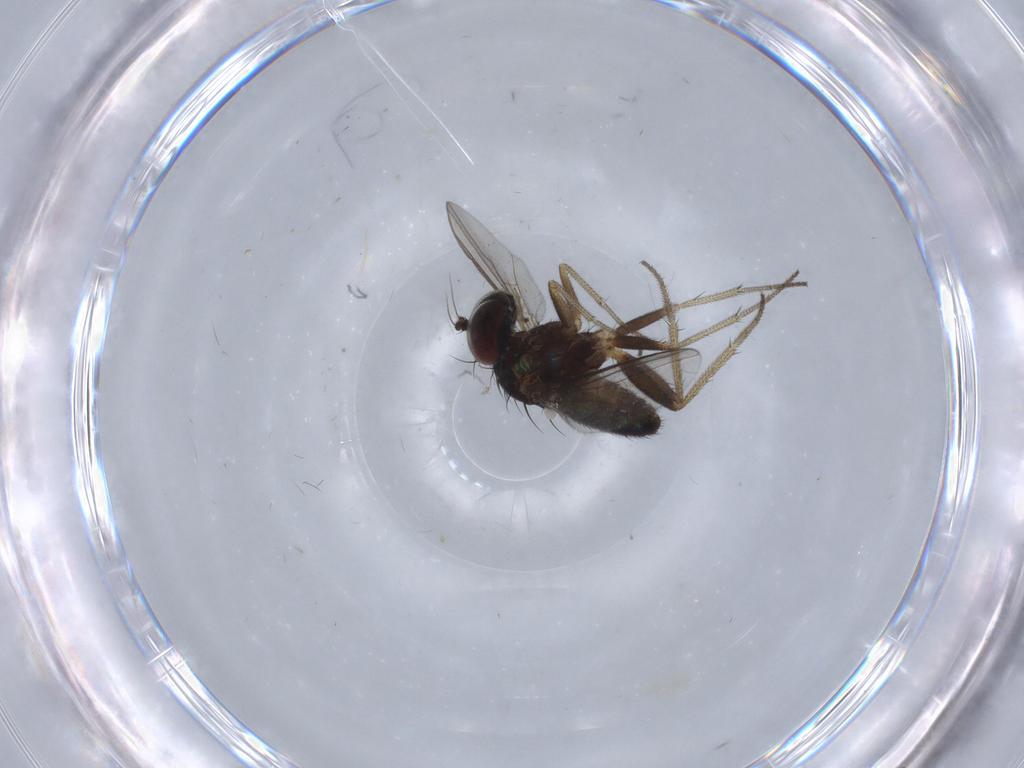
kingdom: Animalia
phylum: Arthropoda
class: Insecta
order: Diptera
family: Chironomidae
